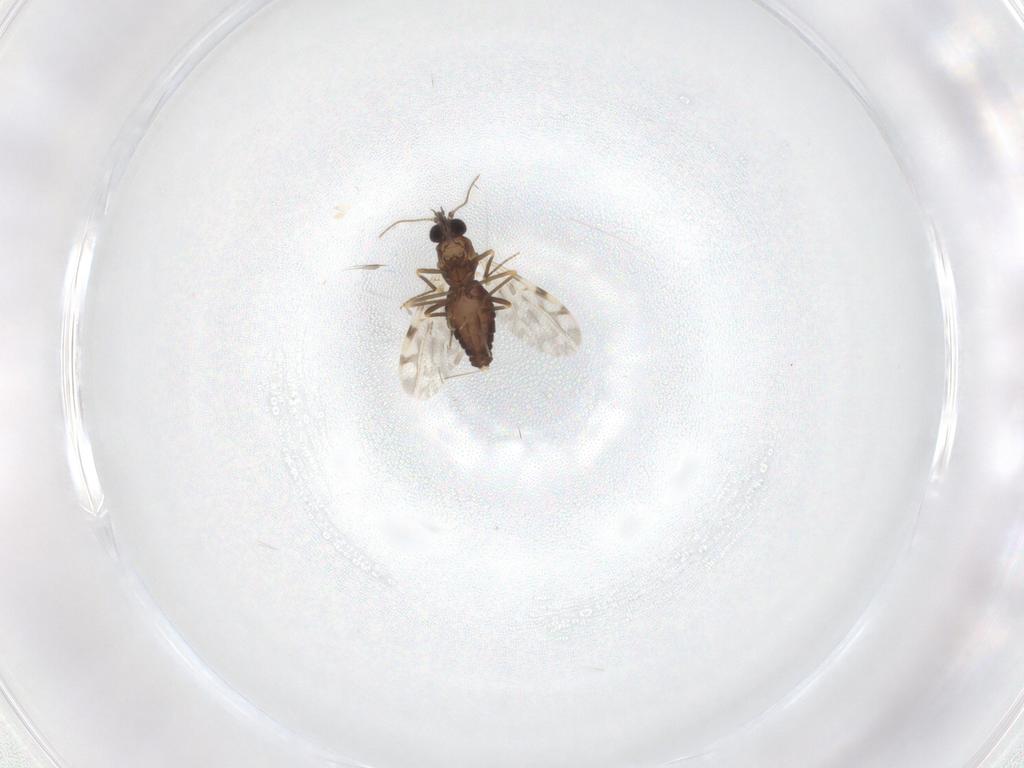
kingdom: Animalia
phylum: Arthropoda
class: Insecta
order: Diptera
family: Ceratopogonidae
